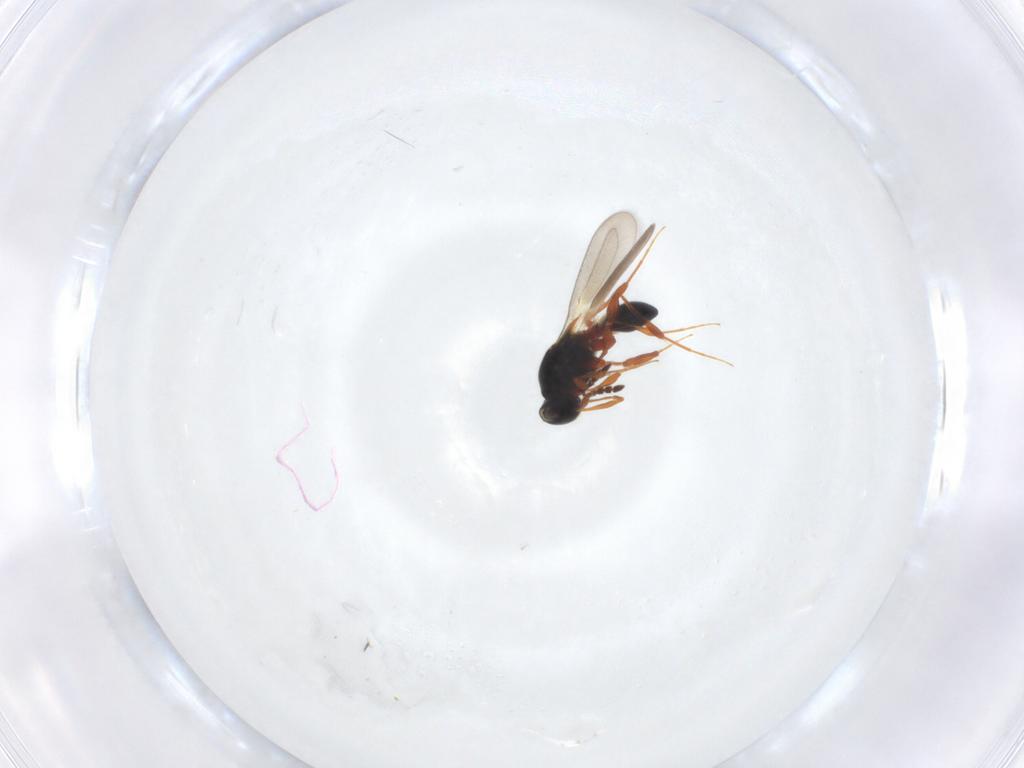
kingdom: Animalia
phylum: Arthropoda
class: Insecta
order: Hymenoptera
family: Platygastridae
